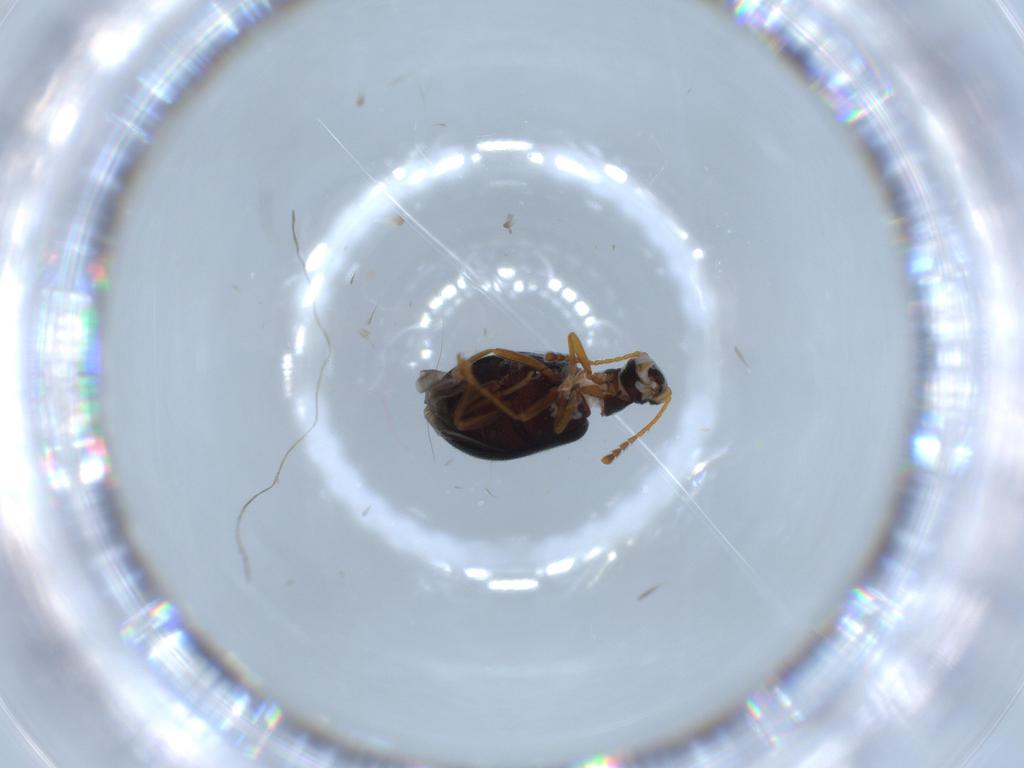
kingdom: Animalia
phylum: Arthropoda
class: Insecta
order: Coleoptera
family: Aderidae
